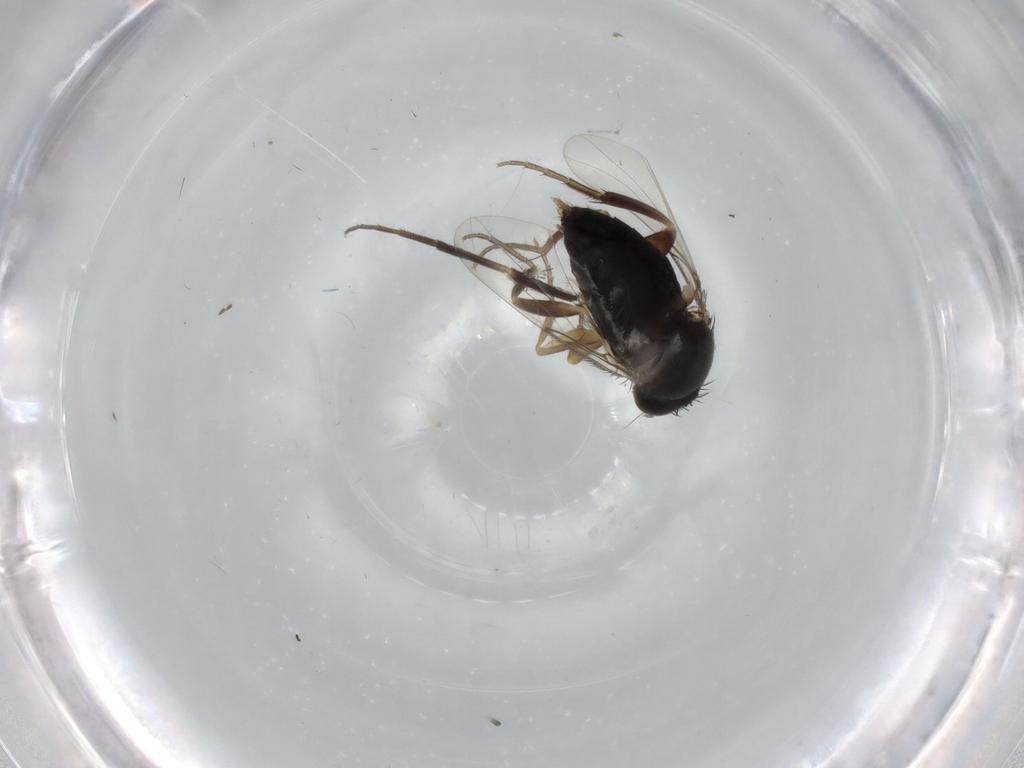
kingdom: Animalia
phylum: Arthropoda
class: Insecta
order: Diptera
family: Phoridae
